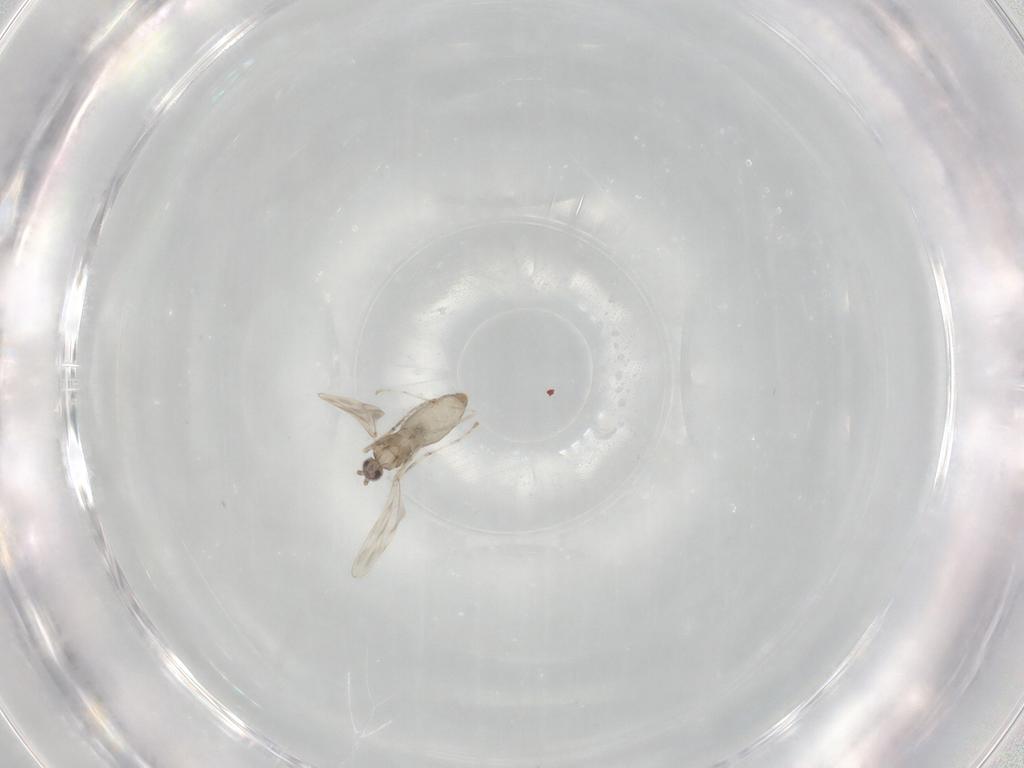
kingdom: Animalia
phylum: Arthropoda
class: Insecta
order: Diptera
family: Cecidomyiidae
